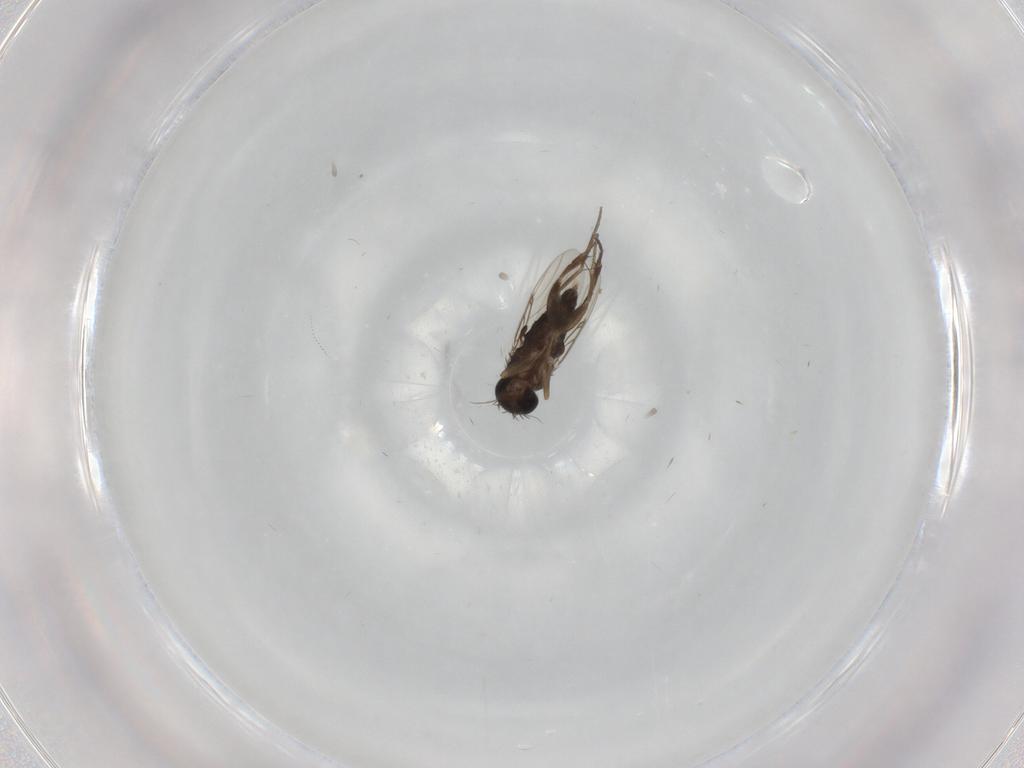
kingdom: Animalia
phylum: Arthropoda
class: Insecta
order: Diptera
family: Phoridae
